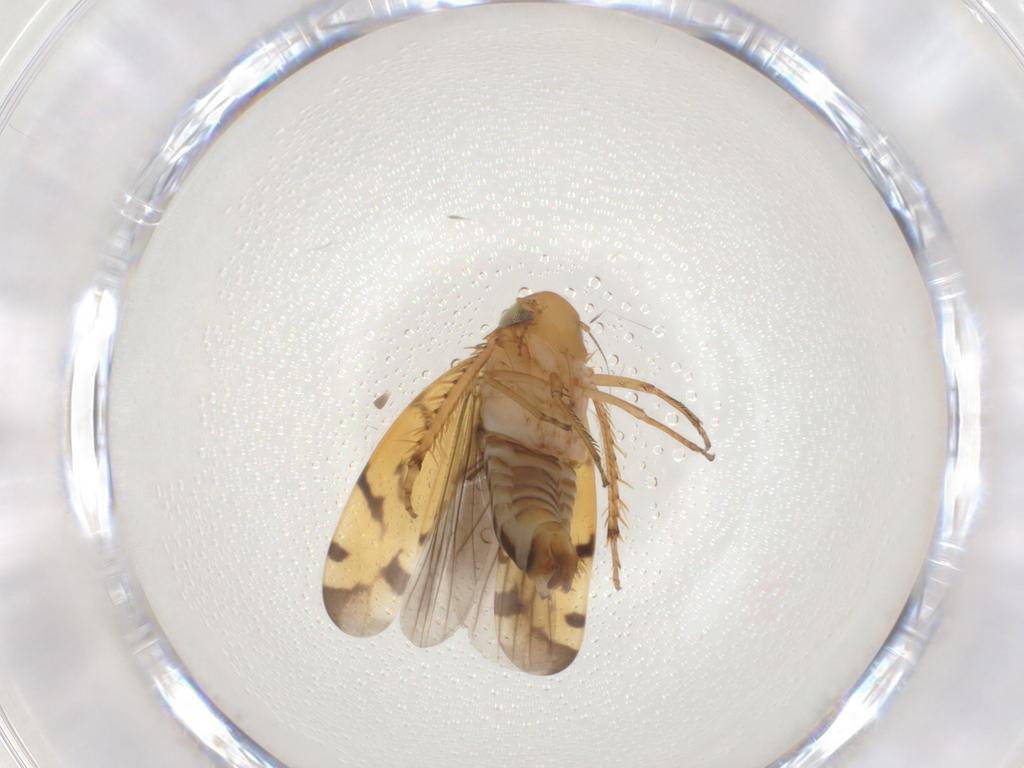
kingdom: Animalia
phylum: Arthropoda
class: Insecta
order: Hemiptera
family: Cicadellidae
